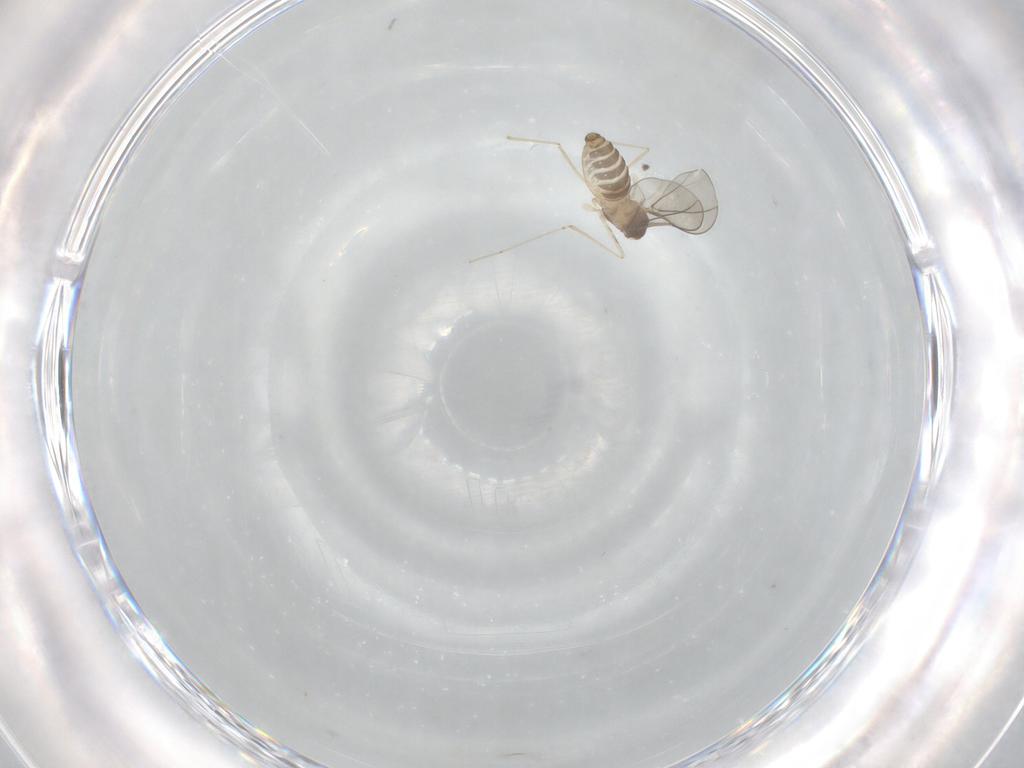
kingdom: Animalia
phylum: Arthropoda
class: Insecta
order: Diptera
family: Cecidomyiidae
